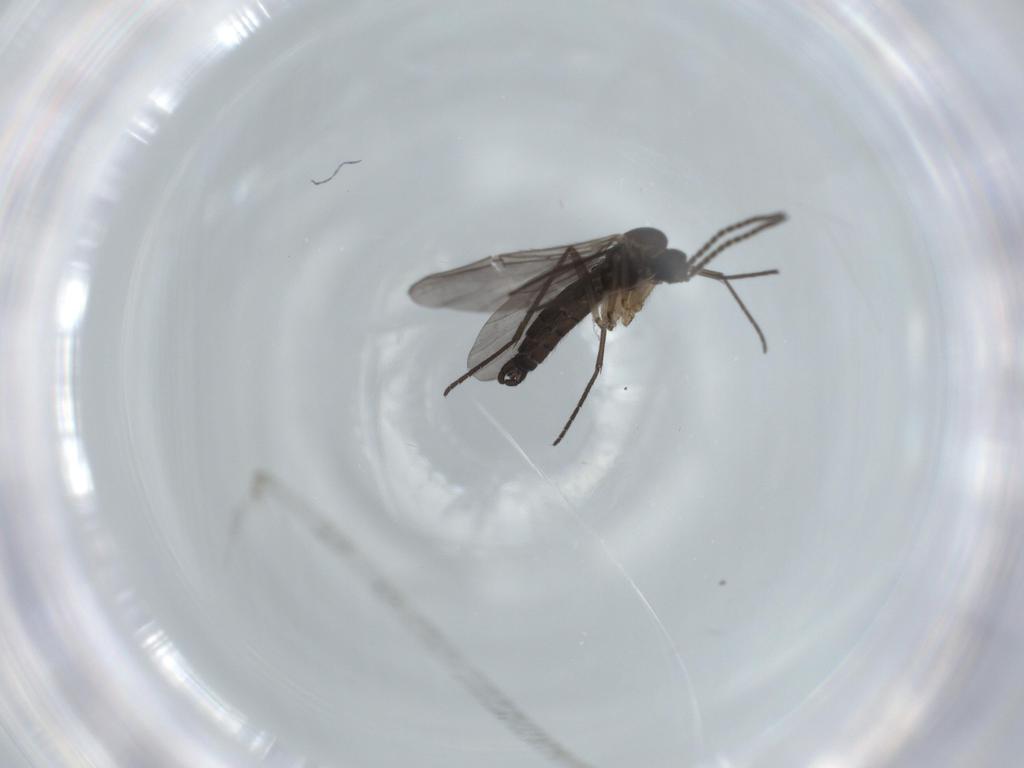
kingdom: Animalia
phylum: Arthropoda
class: Insecta
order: Diptera
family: Sciaridae
